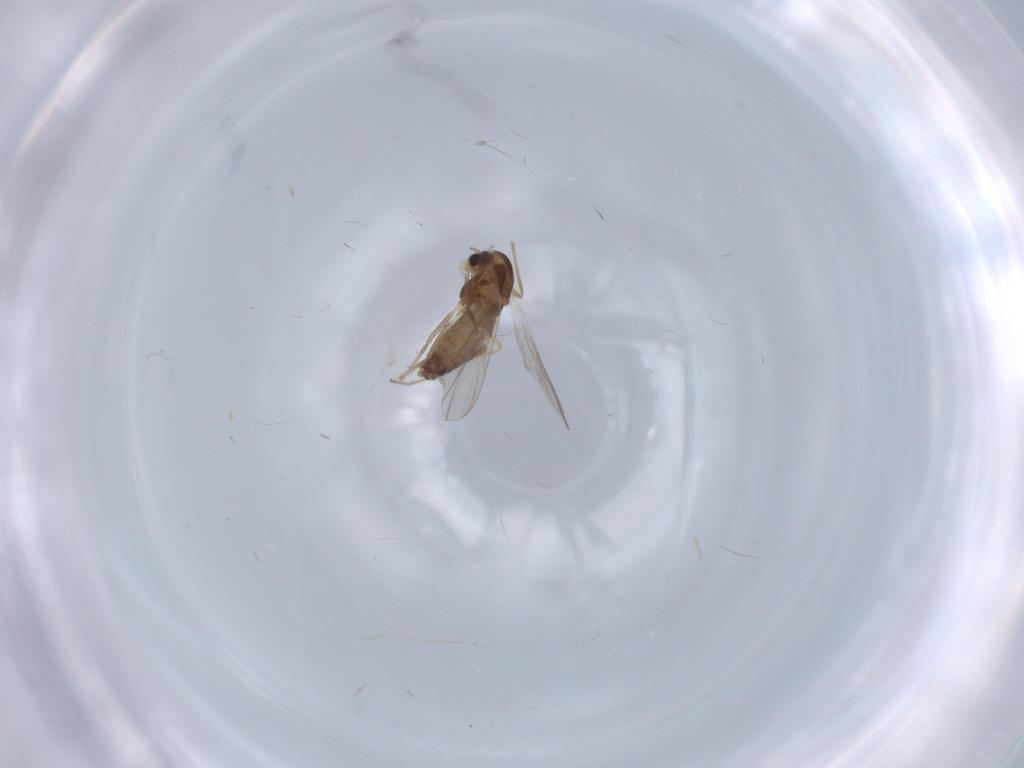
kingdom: Animalia
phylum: Arthropoda
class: Insecta
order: Diptera
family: Chironomidae
